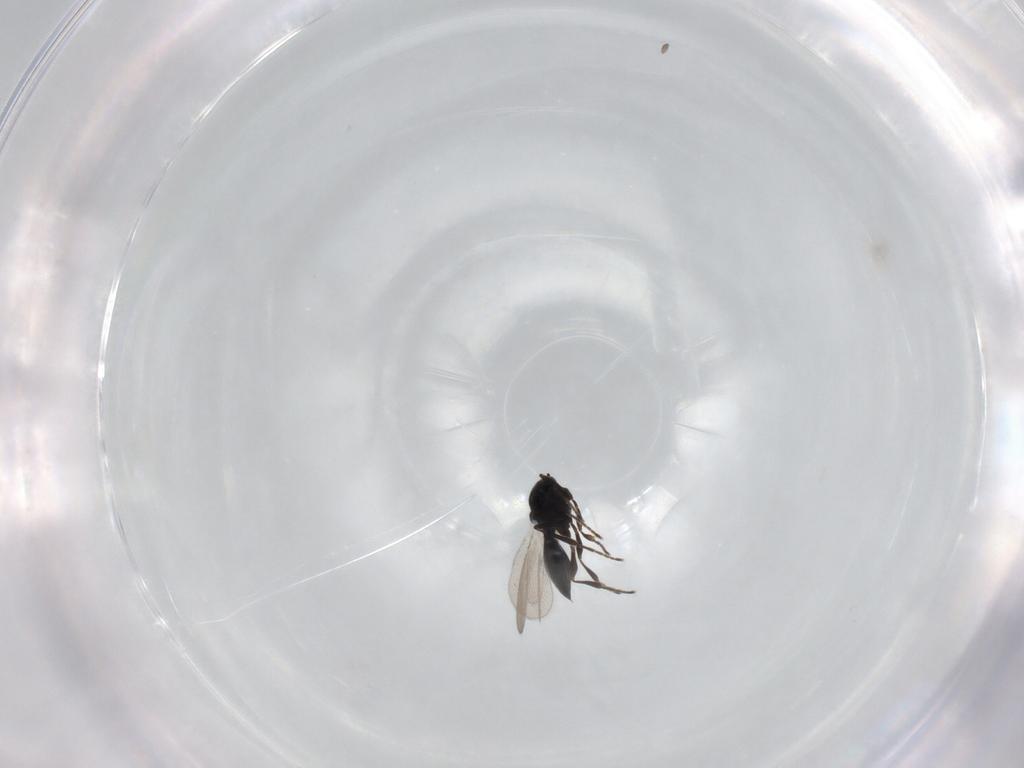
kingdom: Animalia
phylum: Arthropoda
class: Insecta
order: Hymenoptera
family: Platygastridae
